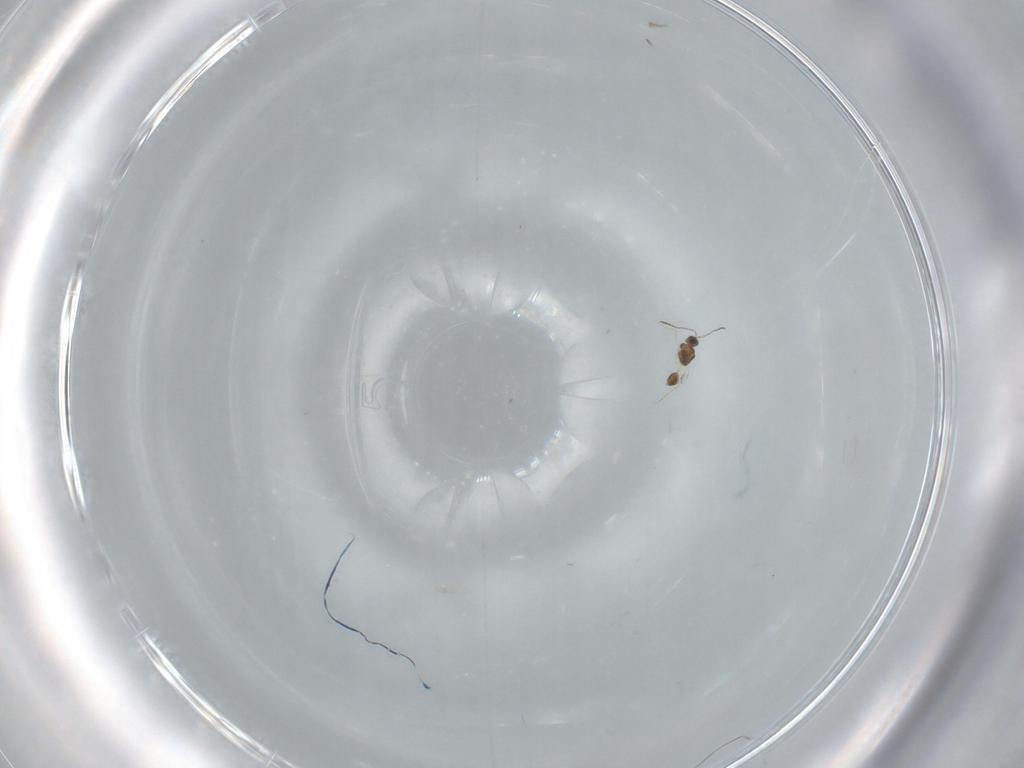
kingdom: Animalia
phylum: Arthropoda
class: Insecta
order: Hymenoptera
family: Mymarommatidae
